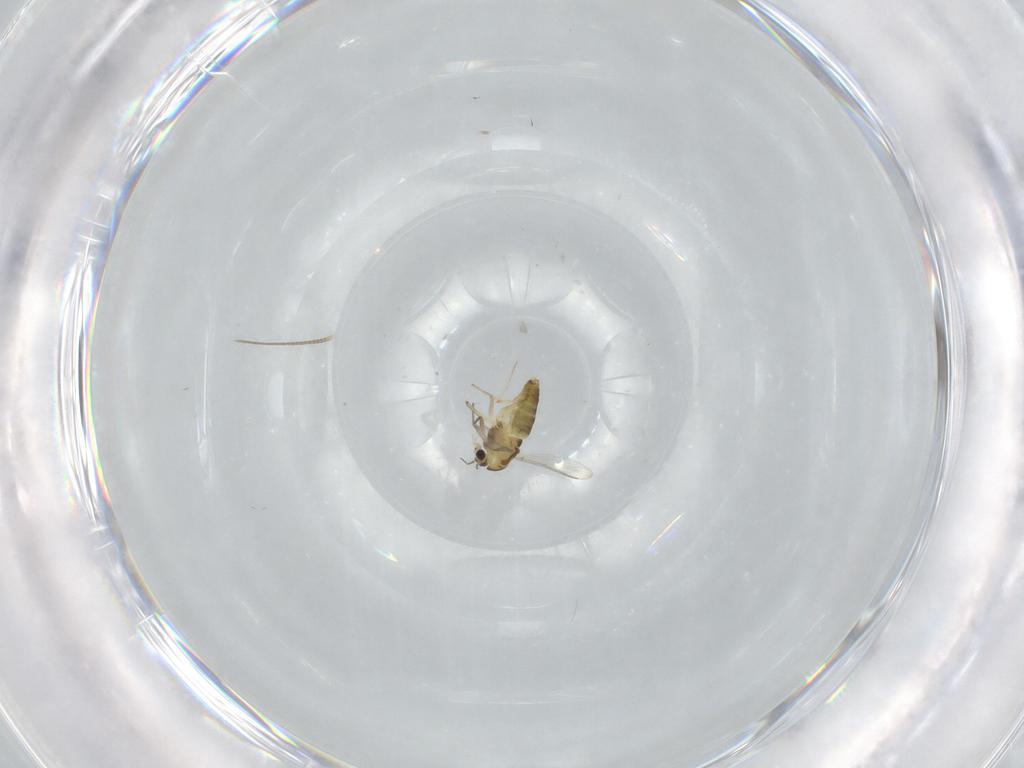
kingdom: Animalia
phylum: Arthropoda
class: Insecta
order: Diptera
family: Chironomidae
